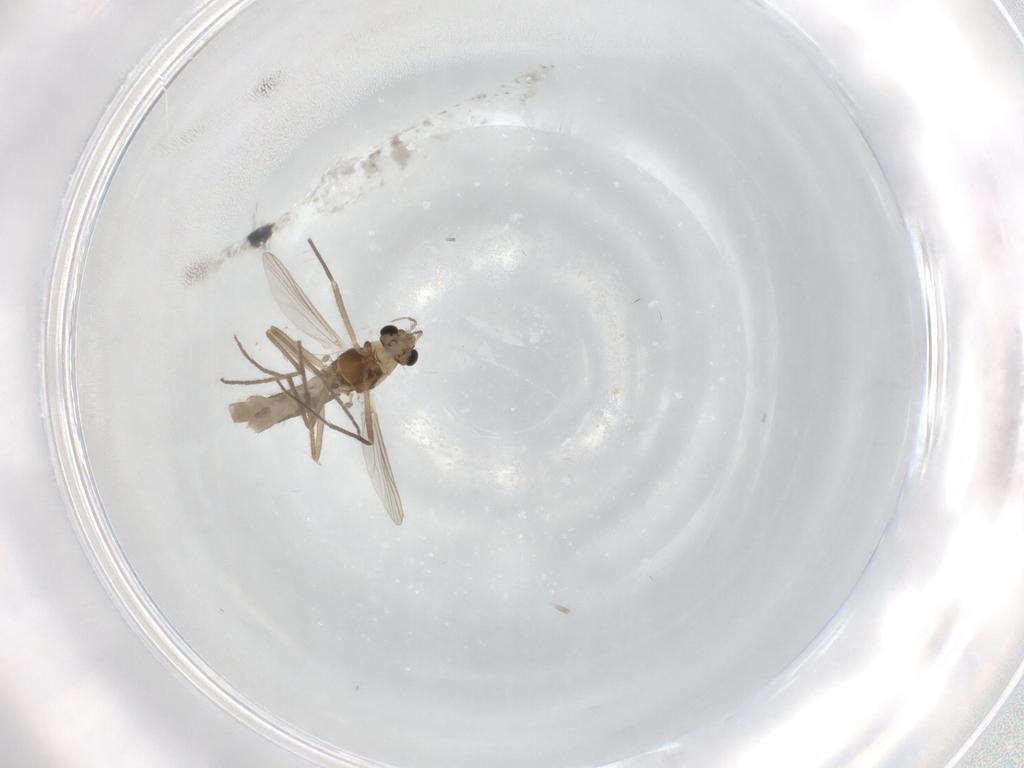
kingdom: Animalia
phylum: Arthropoda
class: Insecta
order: Diptera
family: Chironomidae
